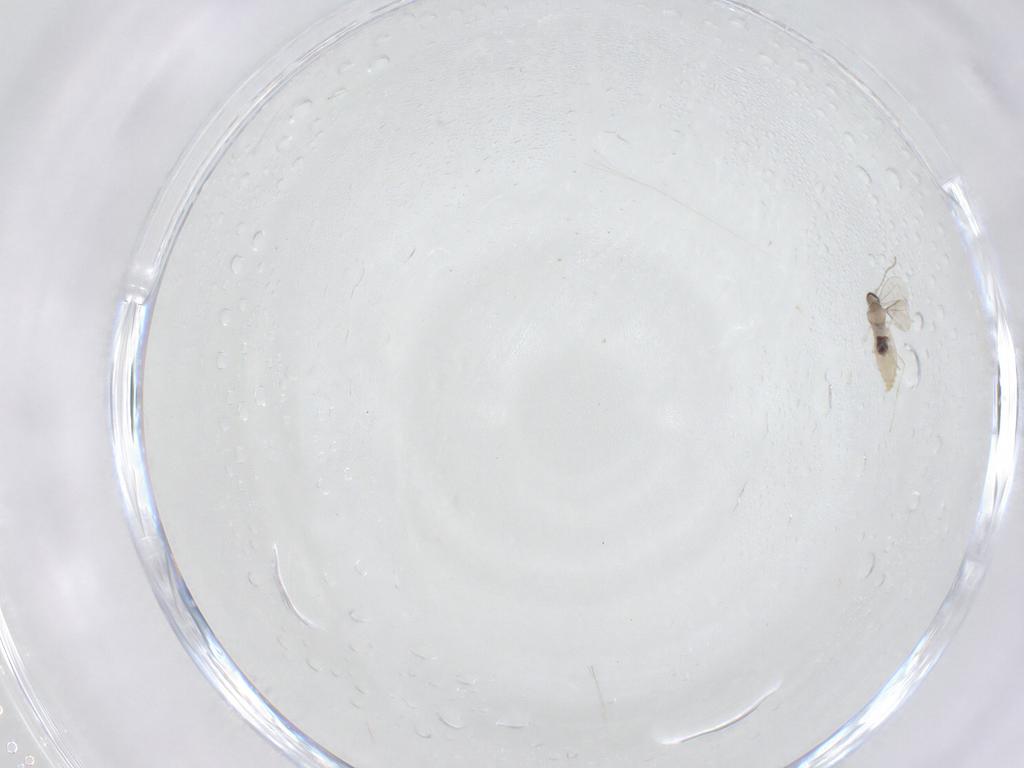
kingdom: Animalia
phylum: Arthropoda
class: Insecta
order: Diptera
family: Cecidomyiidae
